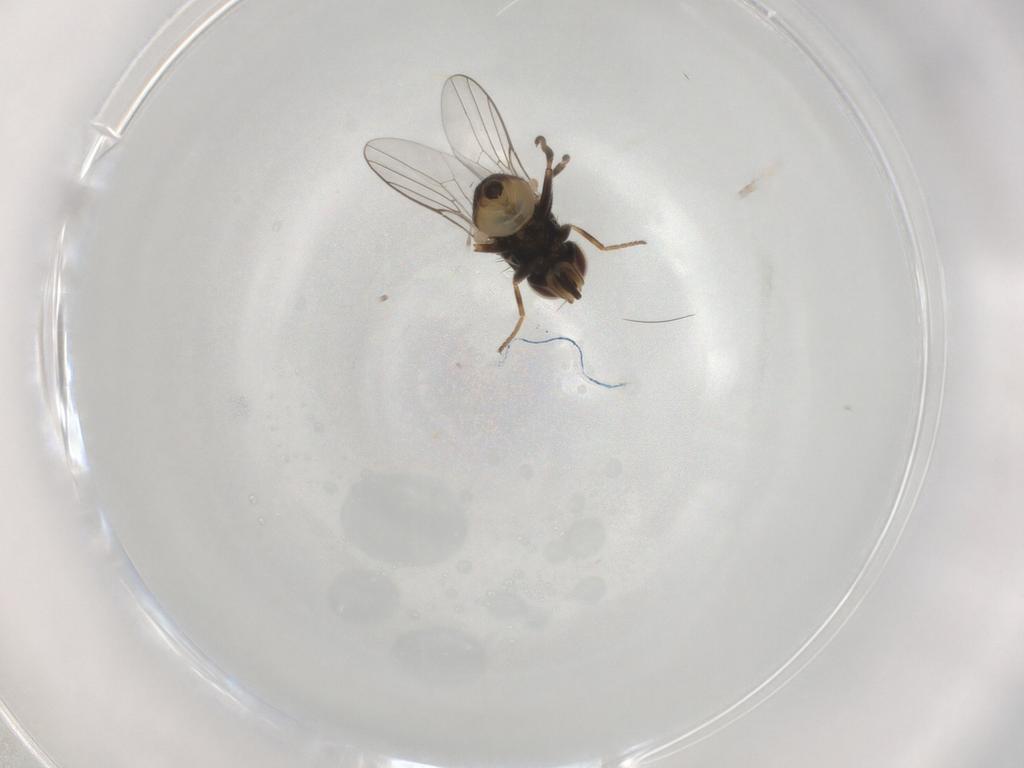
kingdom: Animalia
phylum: Arthropoda
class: Insecta
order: Diptera
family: Chloropidae
